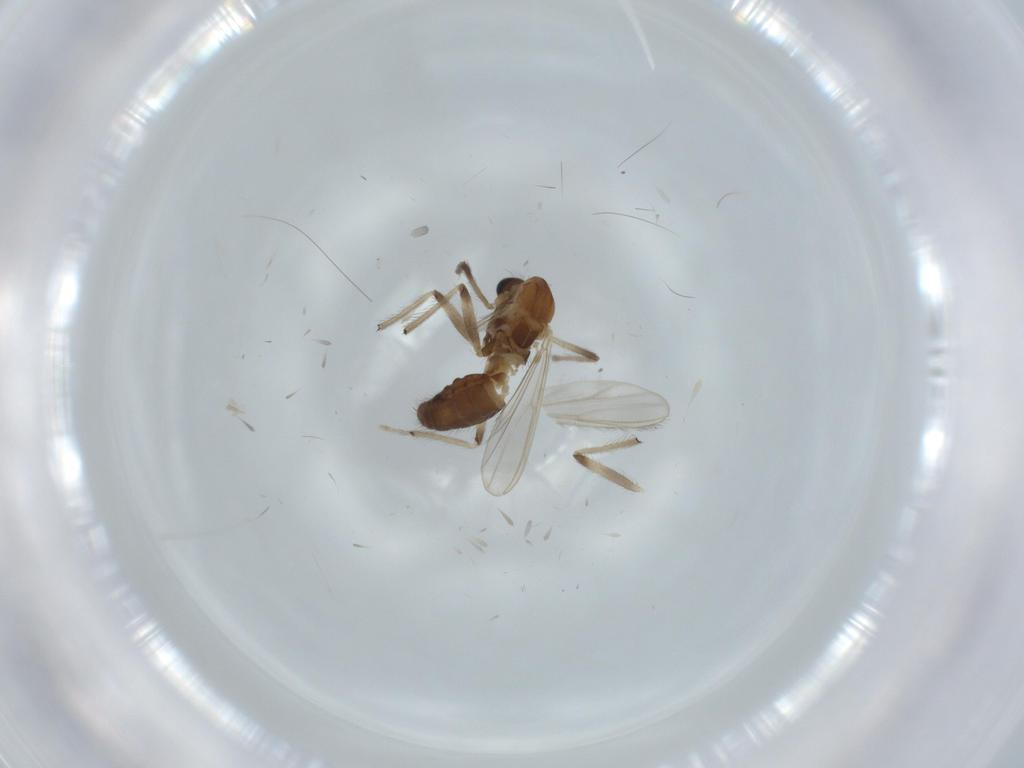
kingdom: Animalia
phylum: Arthropoda
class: Insecta
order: Diptera
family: Chironomidae
